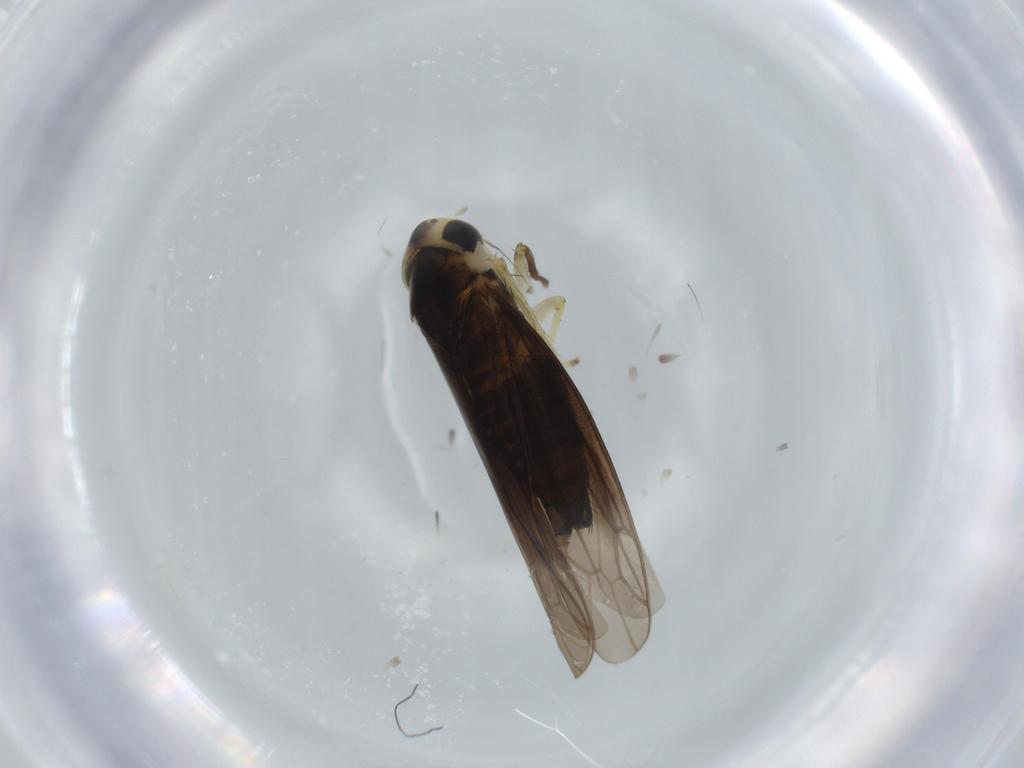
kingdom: Animalia
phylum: Arthropoda
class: Insecta
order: Hemiptera
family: Cicadellidae
